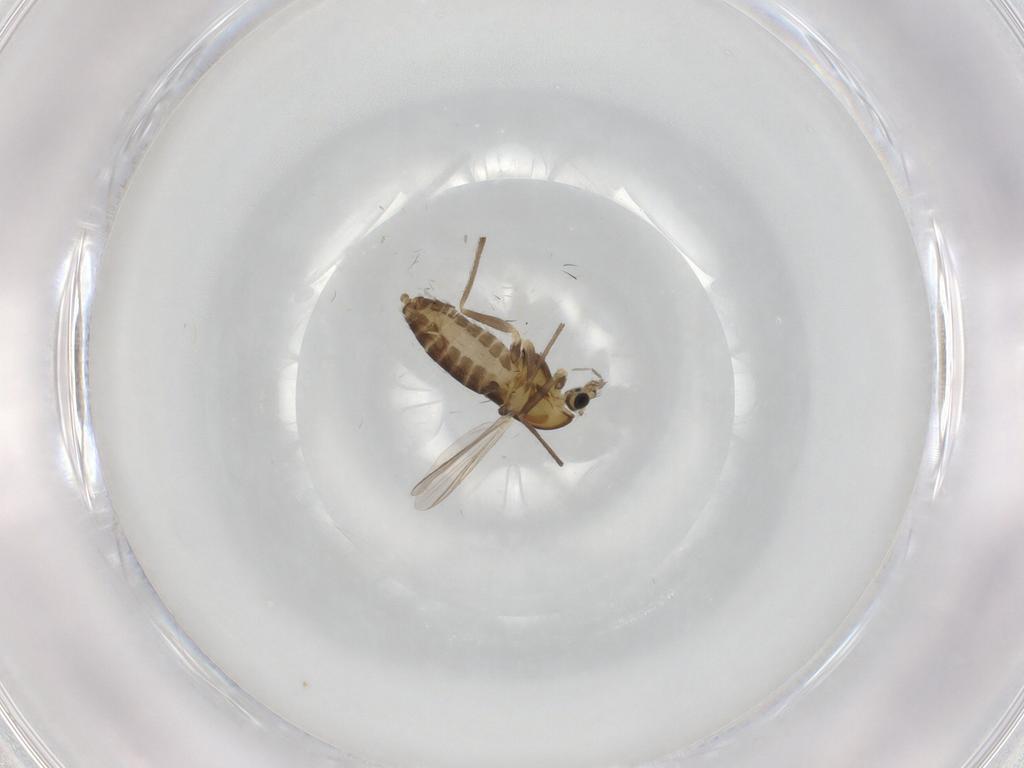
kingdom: Animalia
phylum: Arthropoda
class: Insecta
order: Diptera
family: Chironomidae
